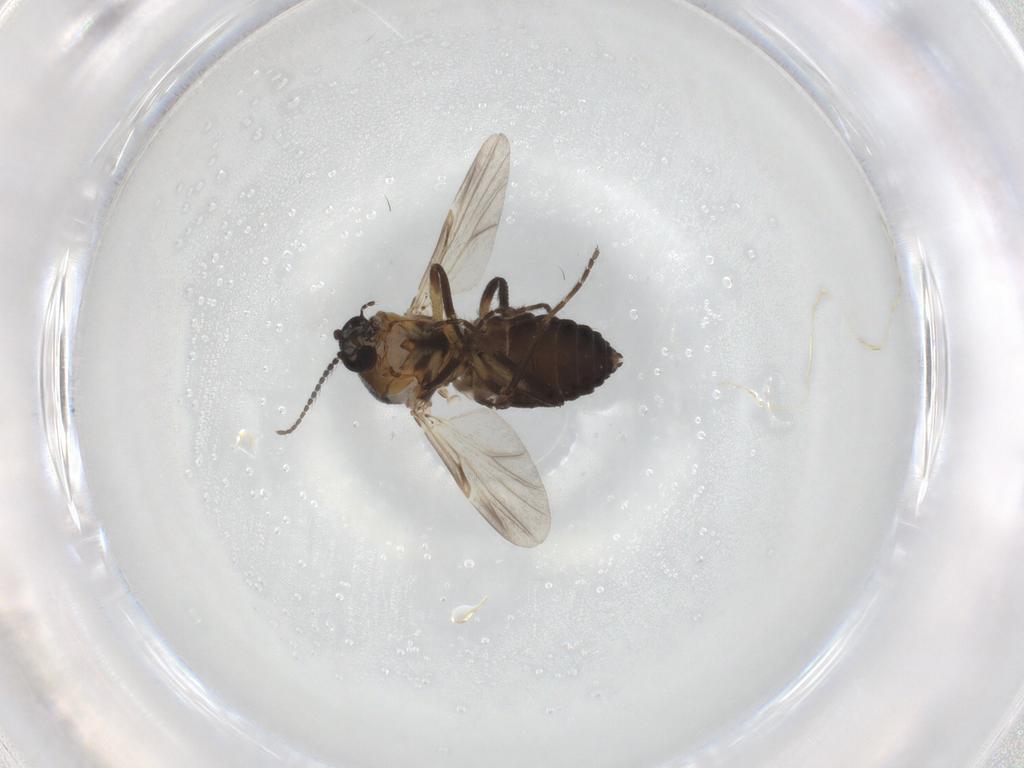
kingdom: Animalia
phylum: Arthropoda
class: Insecta
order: Diptera
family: Ceratopogonidae
